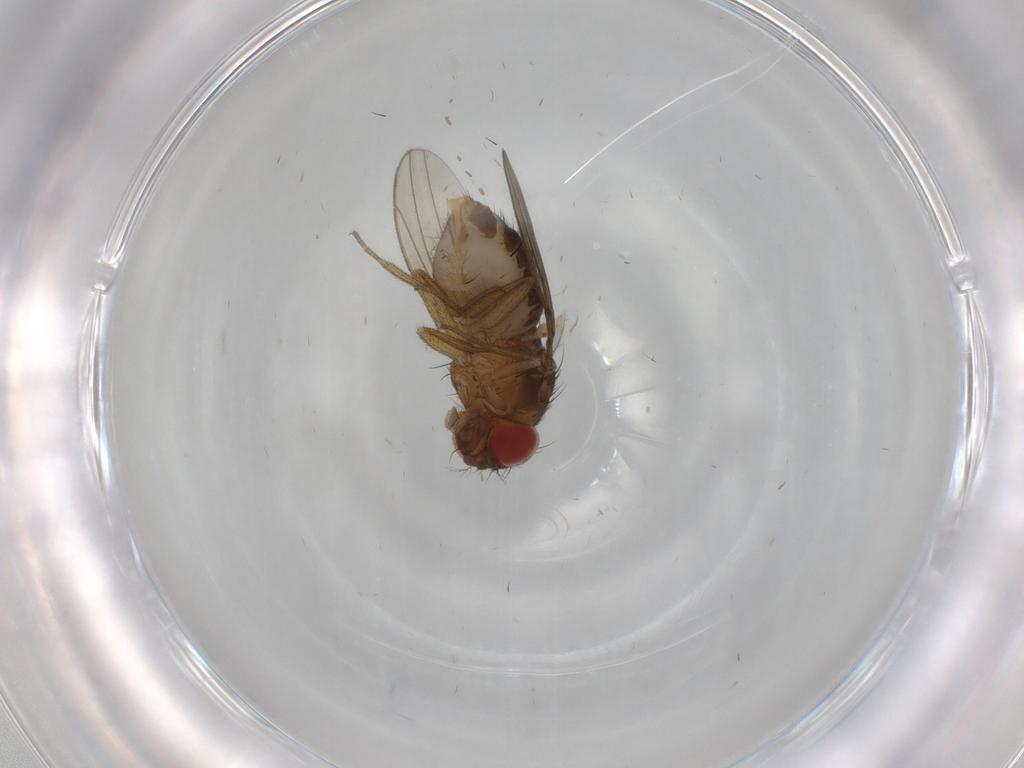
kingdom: Animalia
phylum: Arthropoda
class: Insecta
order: Diptera
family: Drosophilidae
